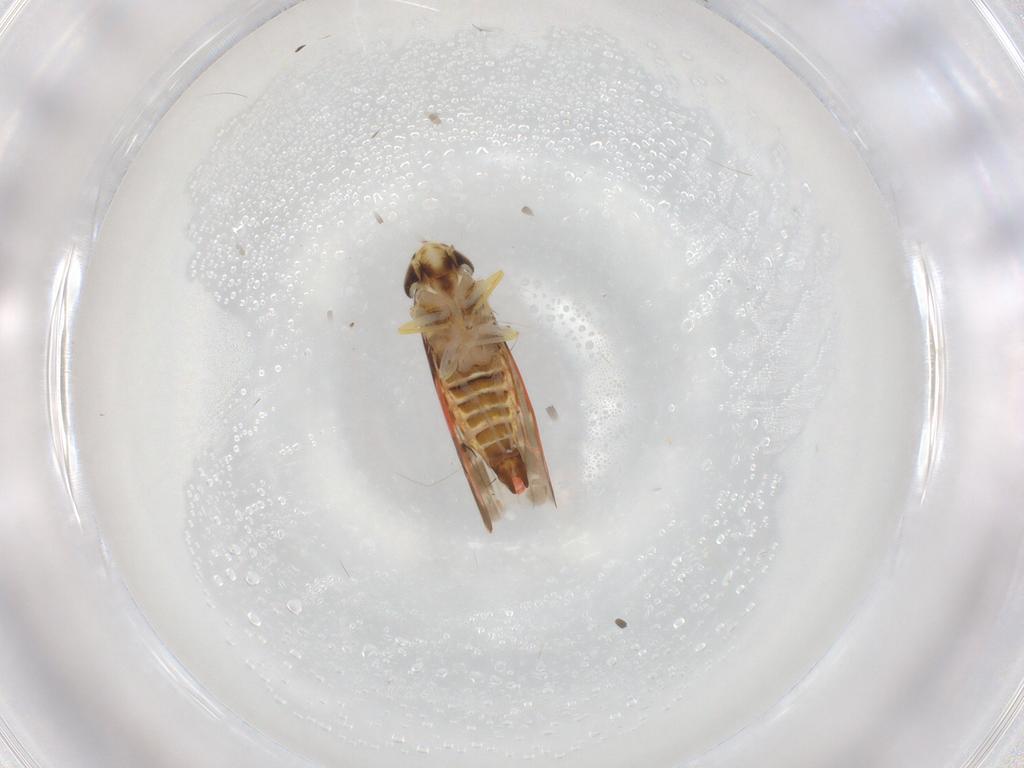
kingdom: Animalia
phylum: Arthropoda
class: Insecta
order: Hemiptera
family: Cicadellidae
